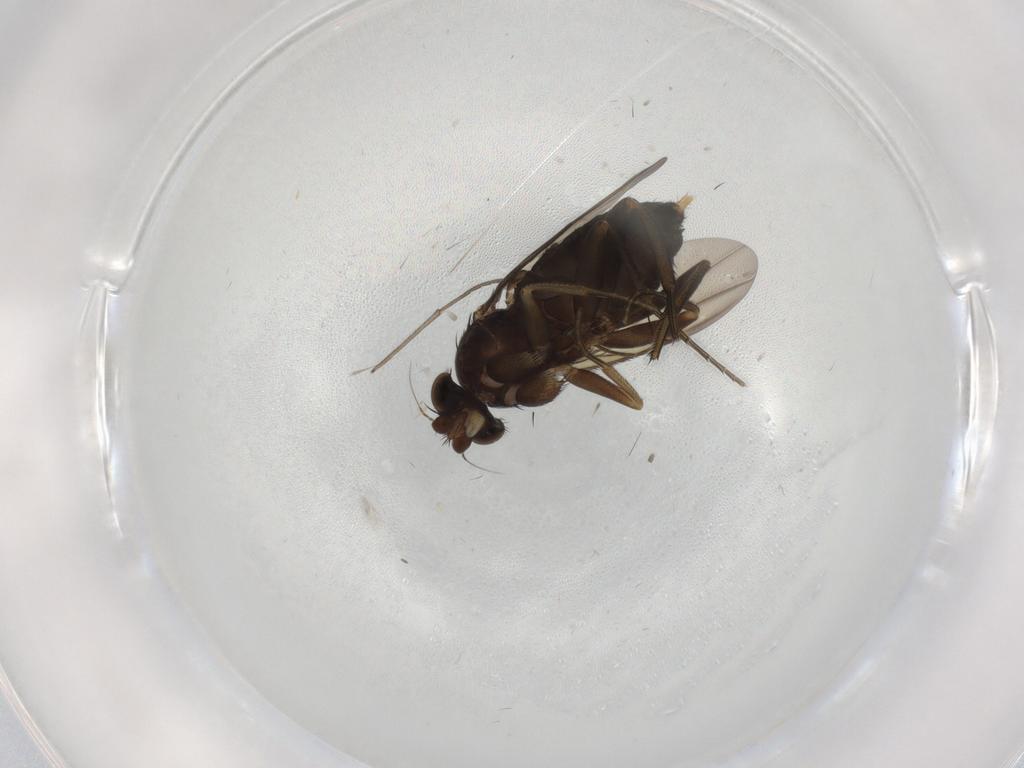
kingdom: Animalia
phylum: Arthropoda
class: Insecta
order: Diptera
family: Phoridae
